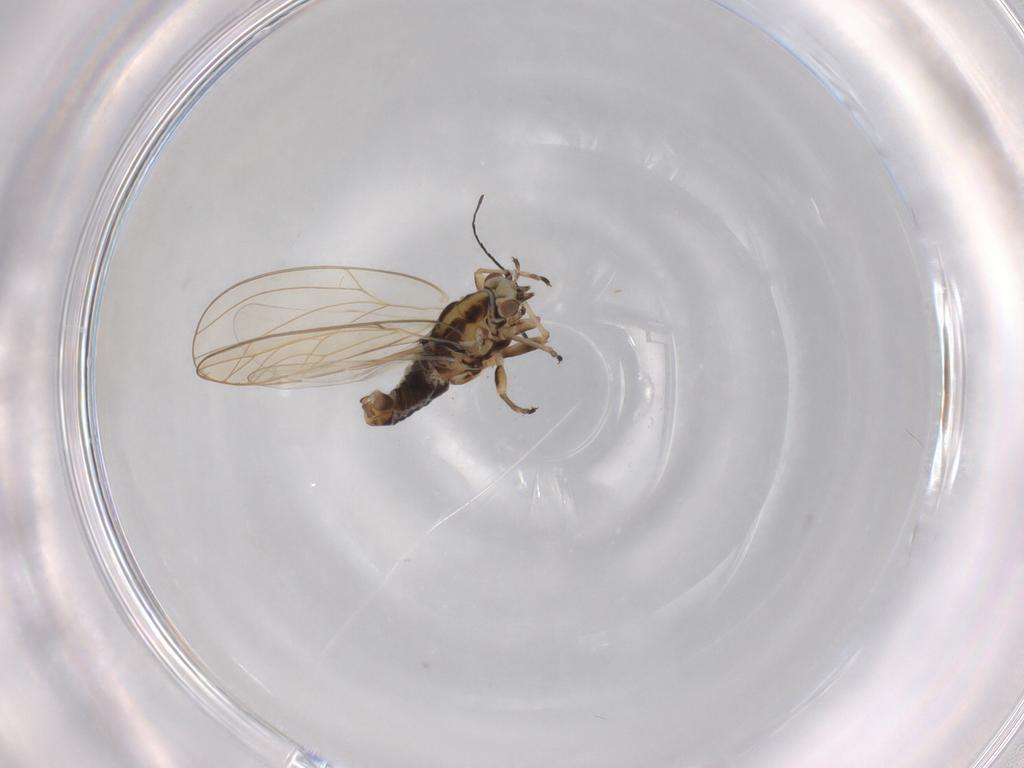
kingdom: Animalia
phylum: Arthropoda
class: Insecta
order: Hemiptera
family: Triozidae
